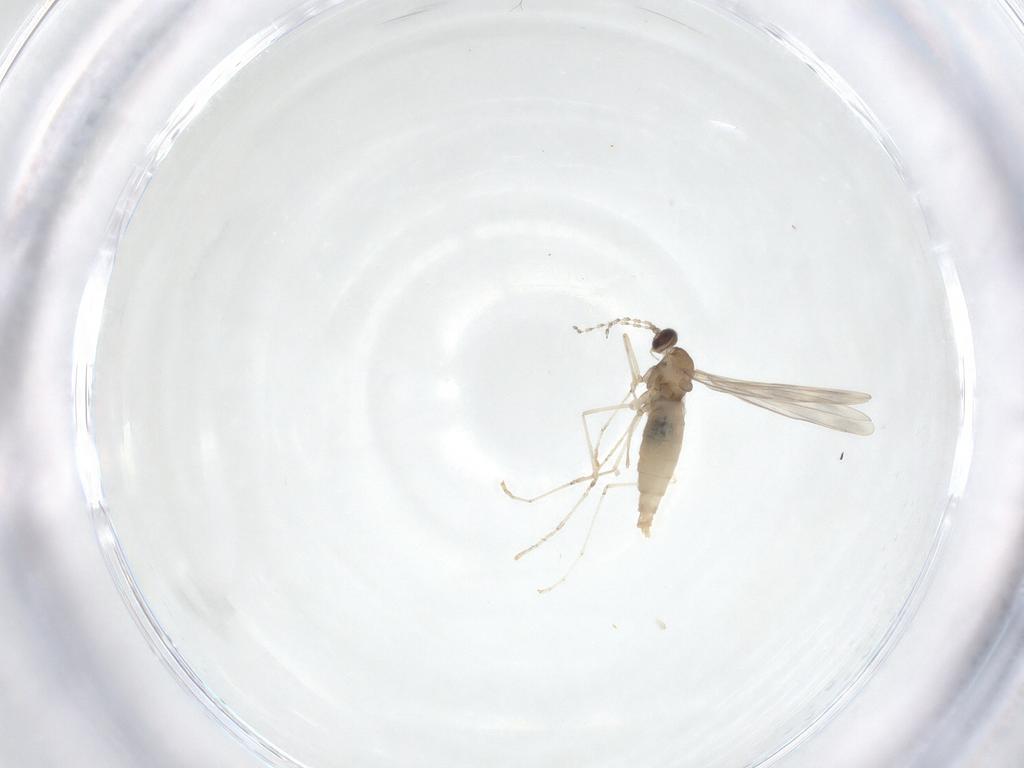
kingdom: Animalia
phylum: Arthropoda
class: Insecta
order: Diptera
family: Cecidomyiidae
